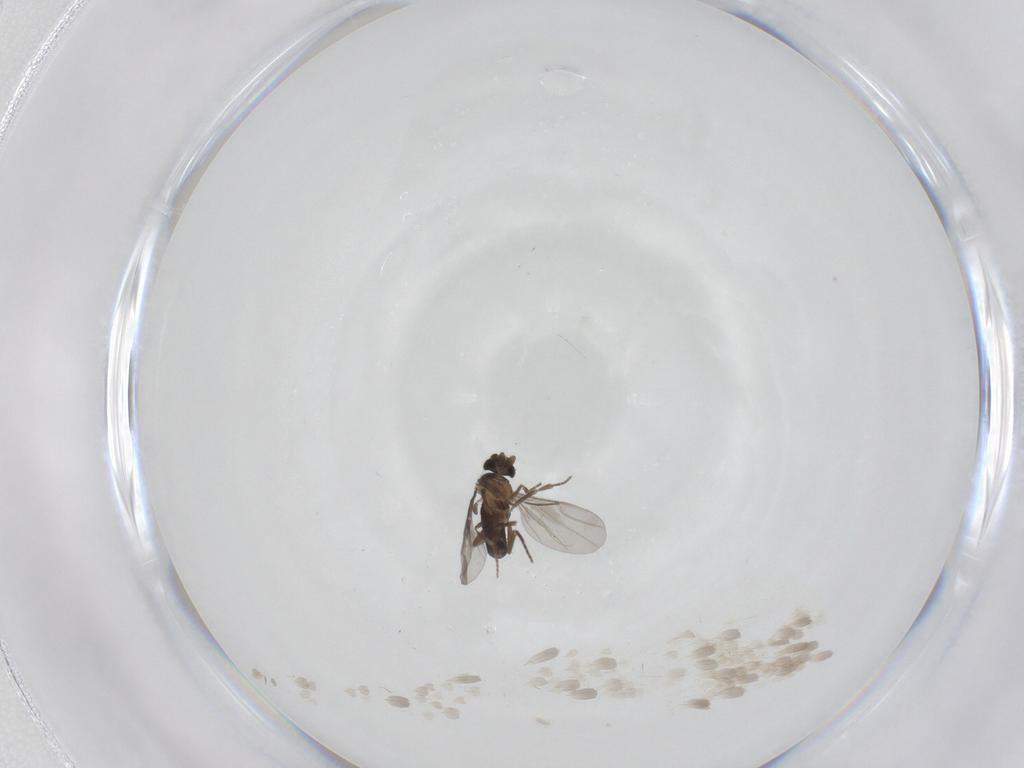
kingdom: Animalia
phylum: Arthropoda
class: Insecta
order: Diptera
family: Phoridae
